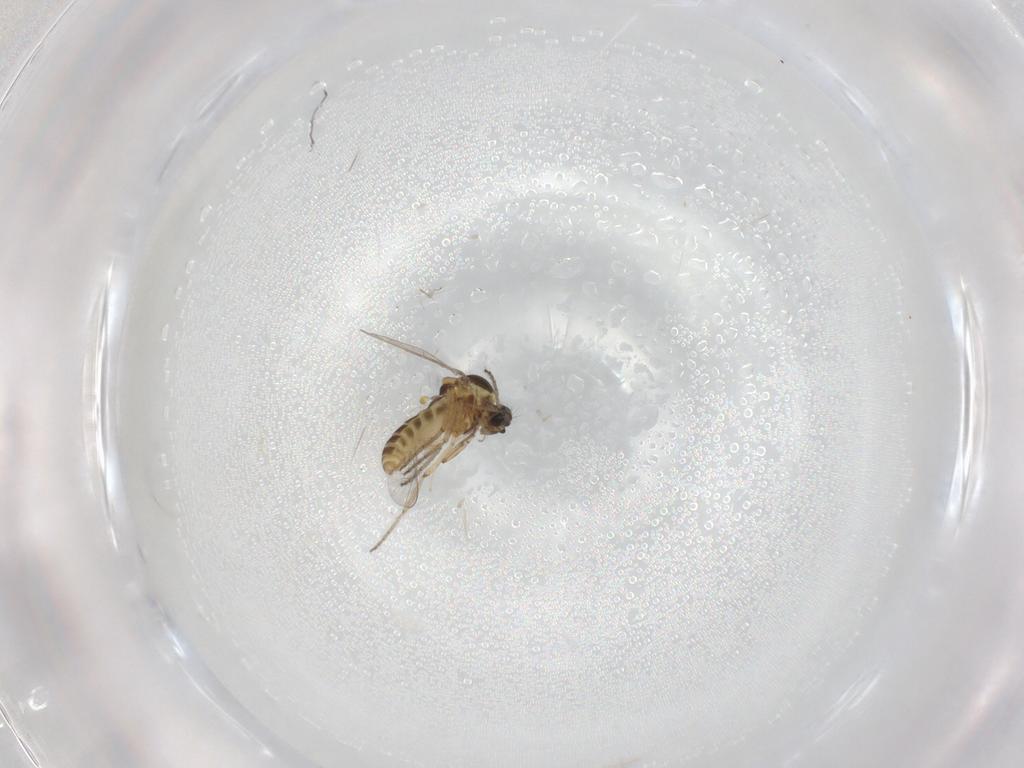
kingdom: Animalia
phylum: Arthropoda
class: Insecta
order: Diptera
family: Ceratopogonidae
